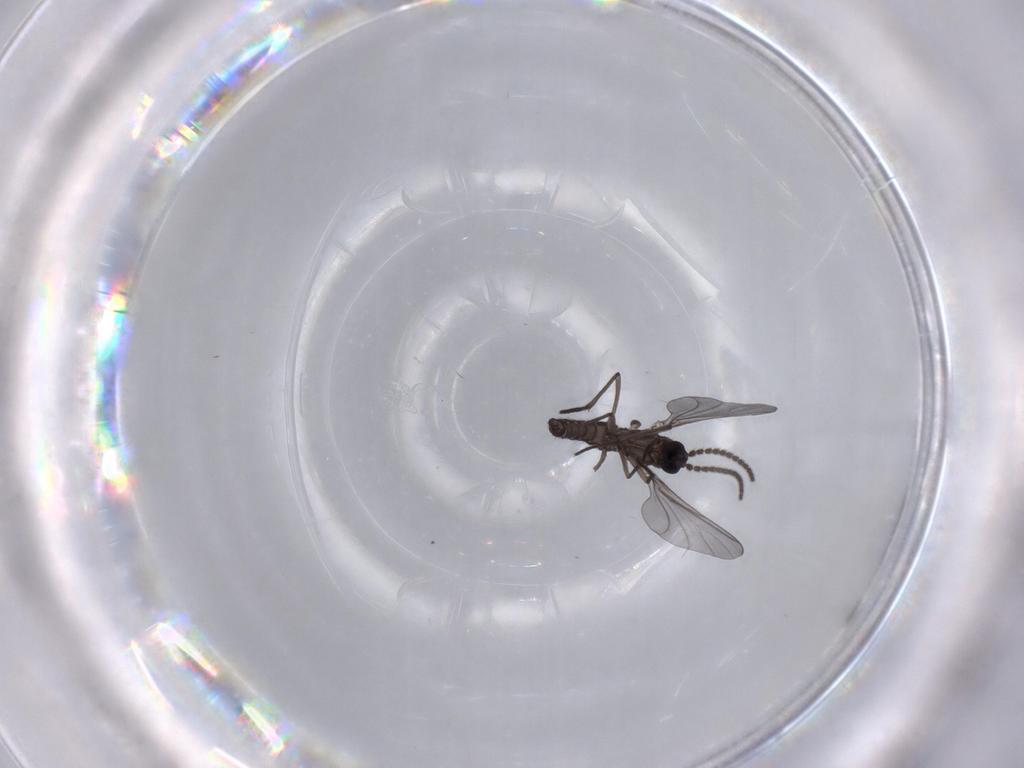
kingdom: Animalia
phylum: Arthropoda
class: Insecta
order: Diptera
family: Sciaridae
